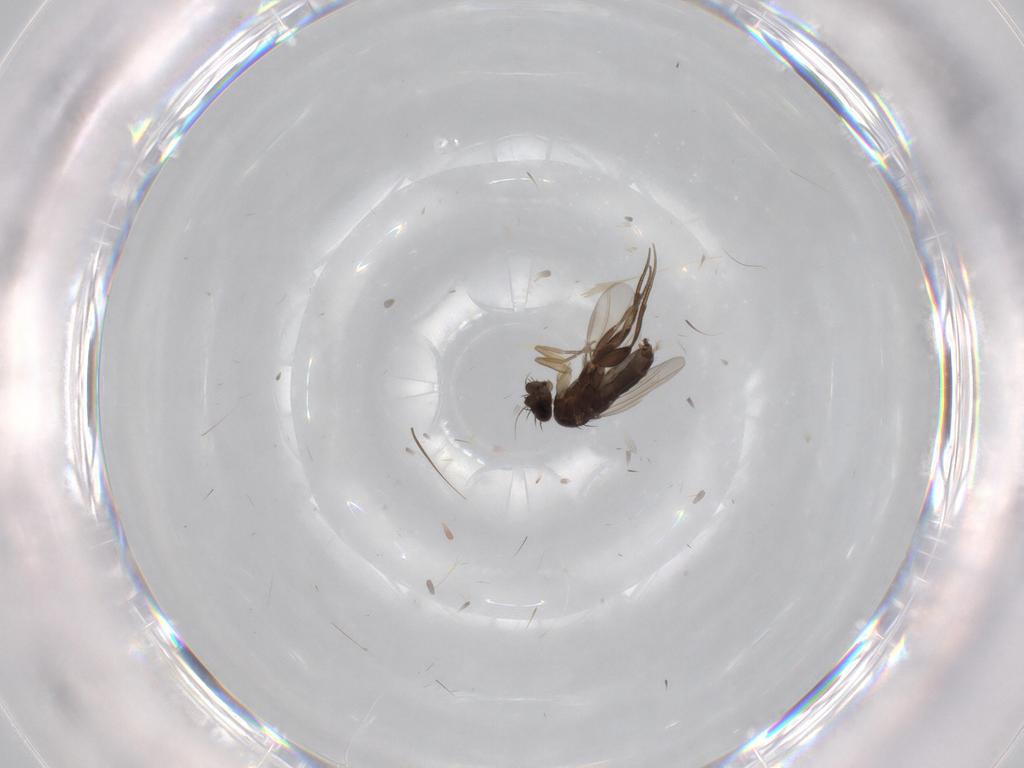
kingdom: Animalia
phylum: Arthropoda
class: Insecta
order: Diptera
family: Phoridae
